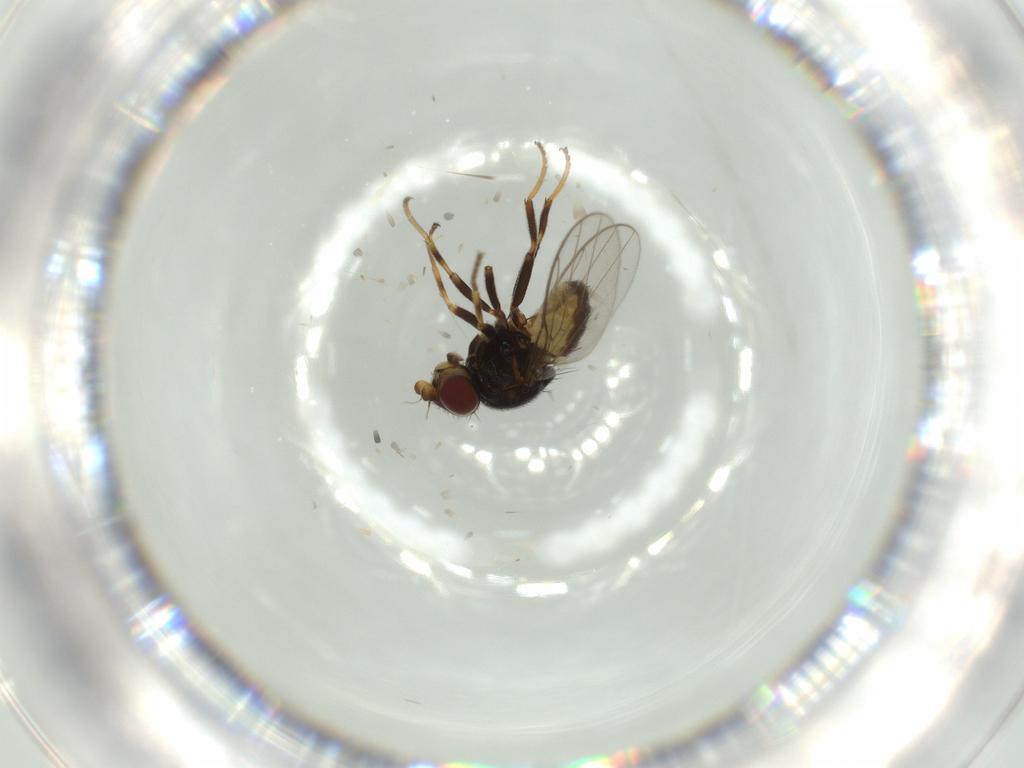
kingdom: Animalia
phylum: Arthropoda
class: Insecta
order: Diptera
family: Chloropidae
